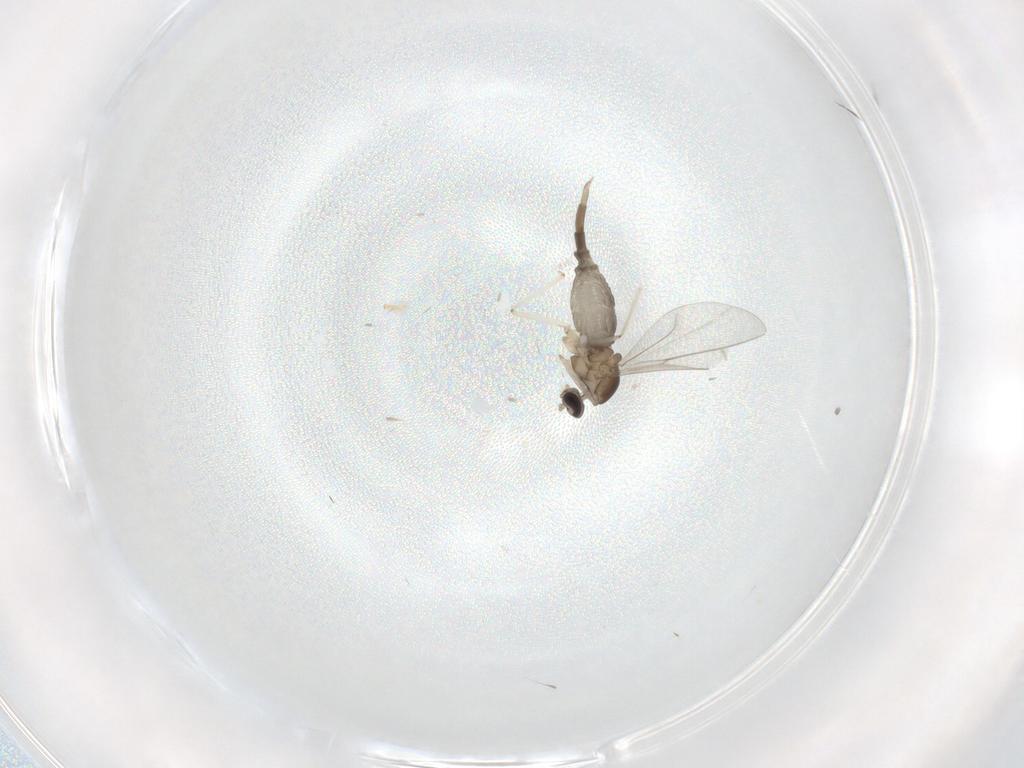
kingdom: Animalia
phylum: Arthropoda
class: Insecta
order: Diptera
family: Cecidomyiidae
